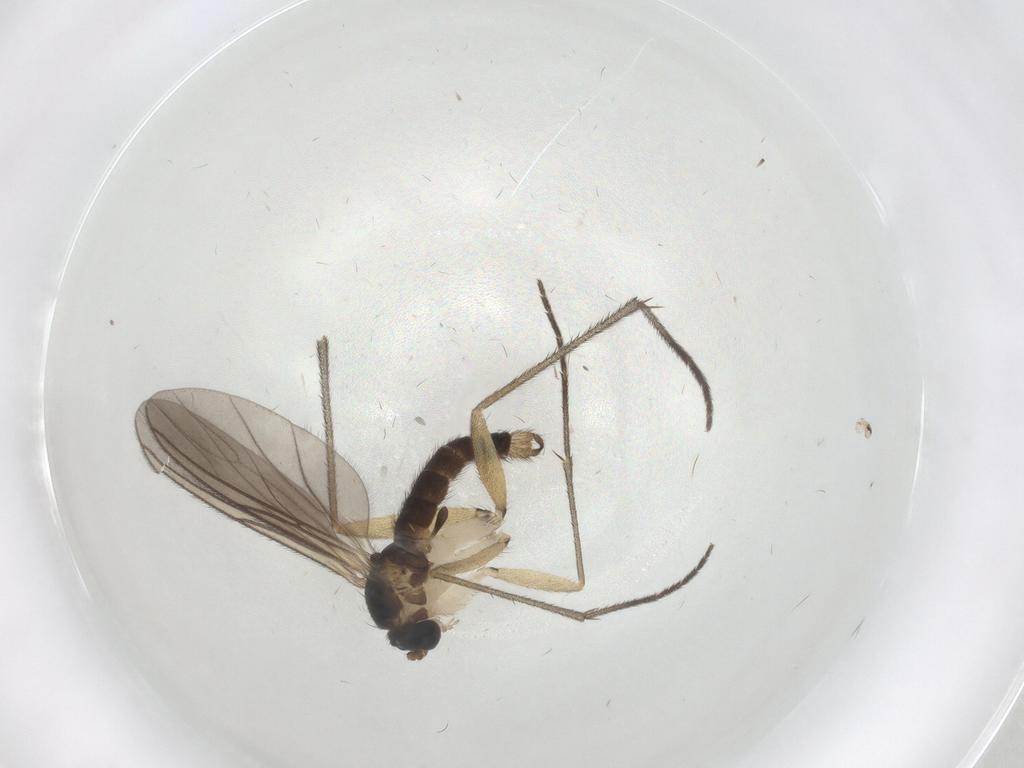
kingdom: Animalia
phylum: Arthropoda
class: Insecta
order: Diptera
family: Sciaridae
